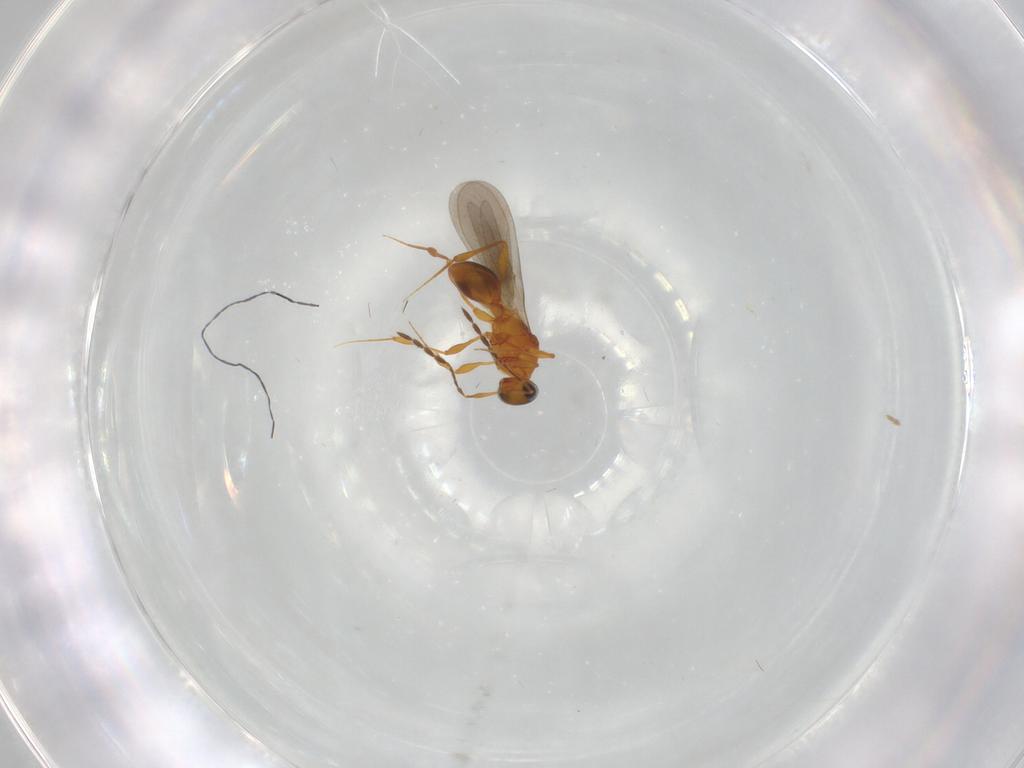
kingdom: Animalia
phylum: Arthropoda
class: Insecta
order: Hymenoptera
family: Platygastridae
